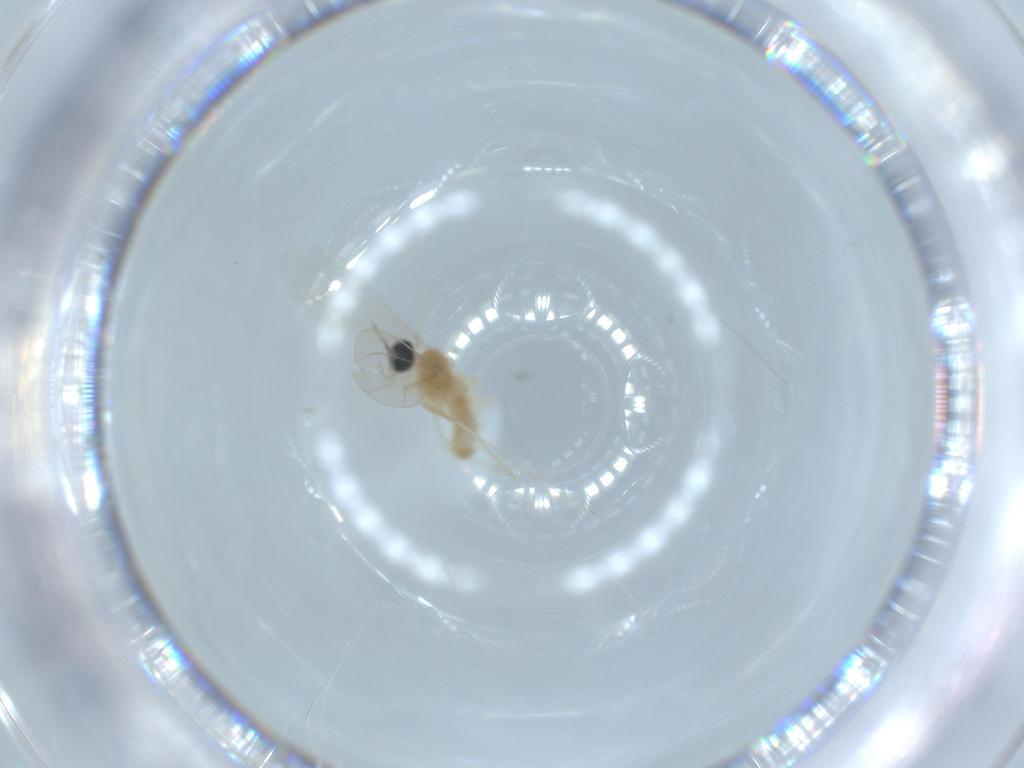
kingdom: Animalia
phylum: Arthropoda
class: Insecta
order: Diptera
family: Cecidomyiidae
